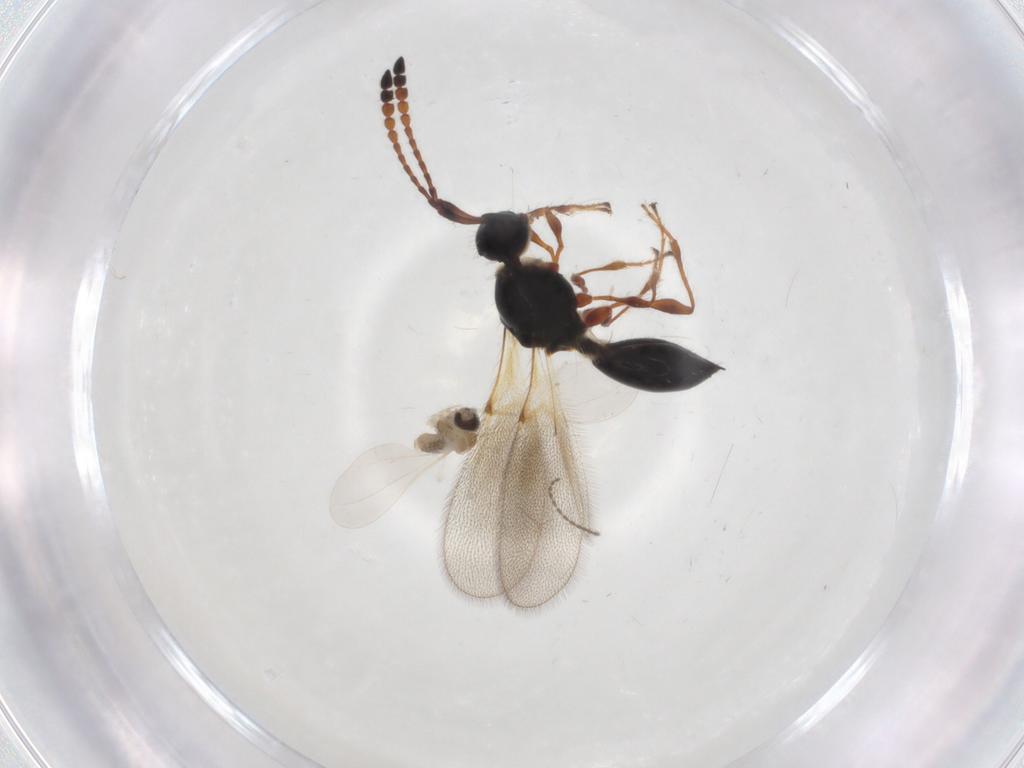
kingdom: Animalia
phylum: Arthropoda
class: Insecta
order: Hymenoptera
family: Diapriidae
